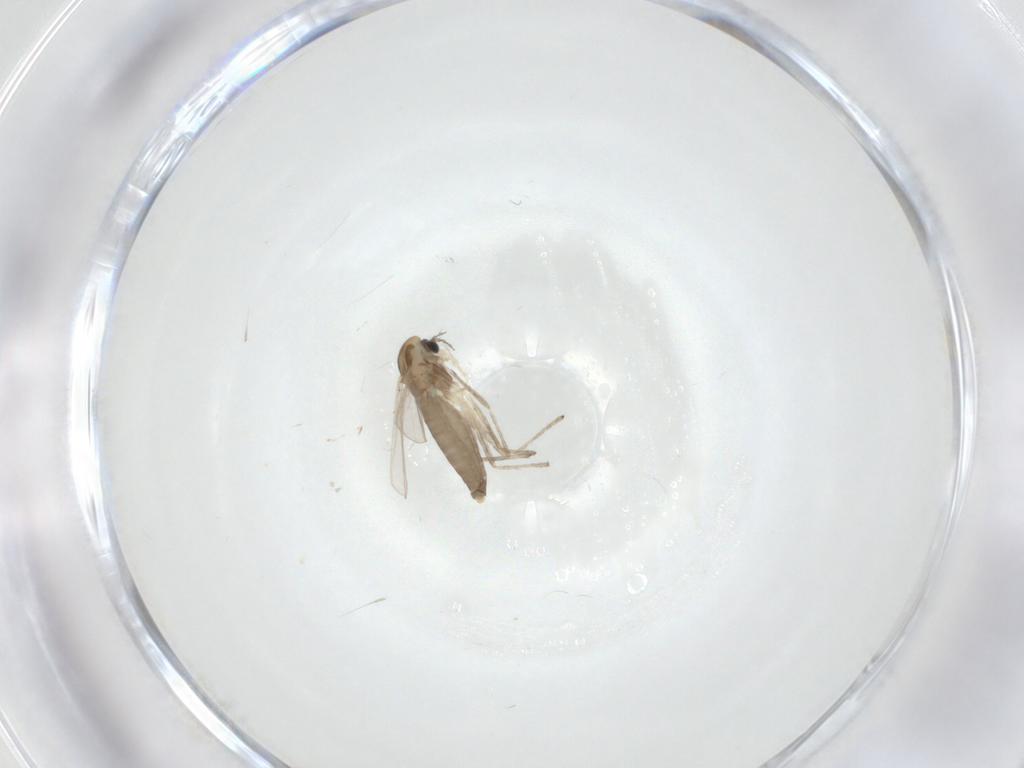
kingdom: Animalia
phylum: Arthropoda
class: Insecta
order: Diptera
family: Chironomidae
